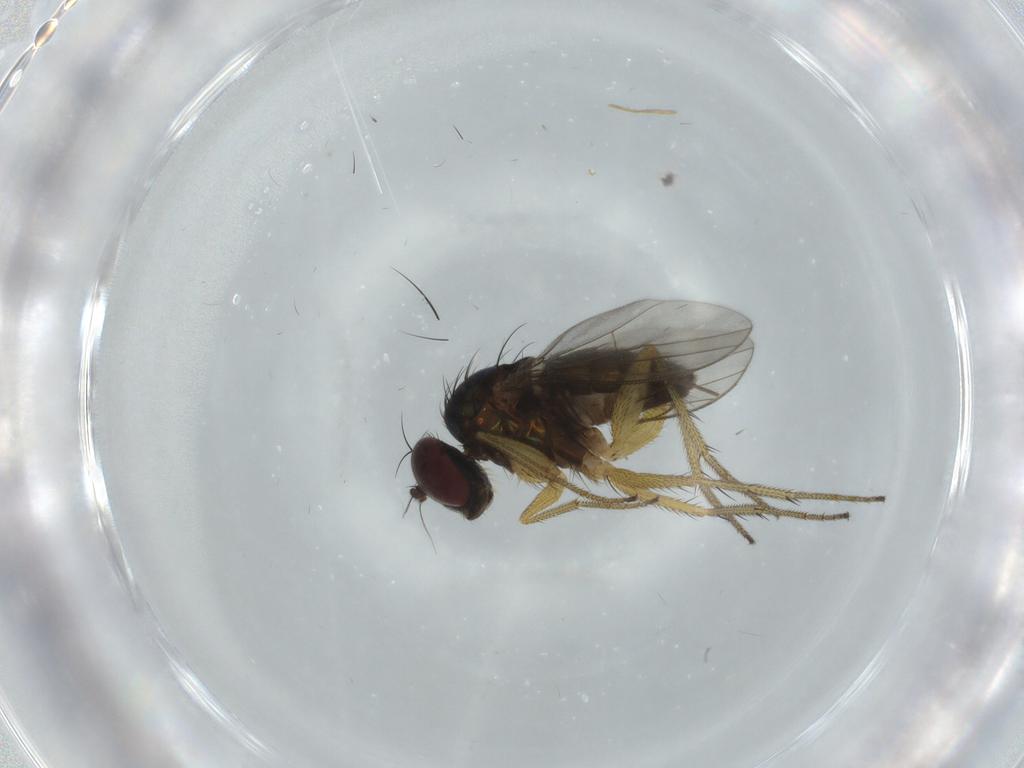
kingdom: Animalia
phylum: Arthropoda
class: Insecta
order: Diptera
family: Dolichopodidae
